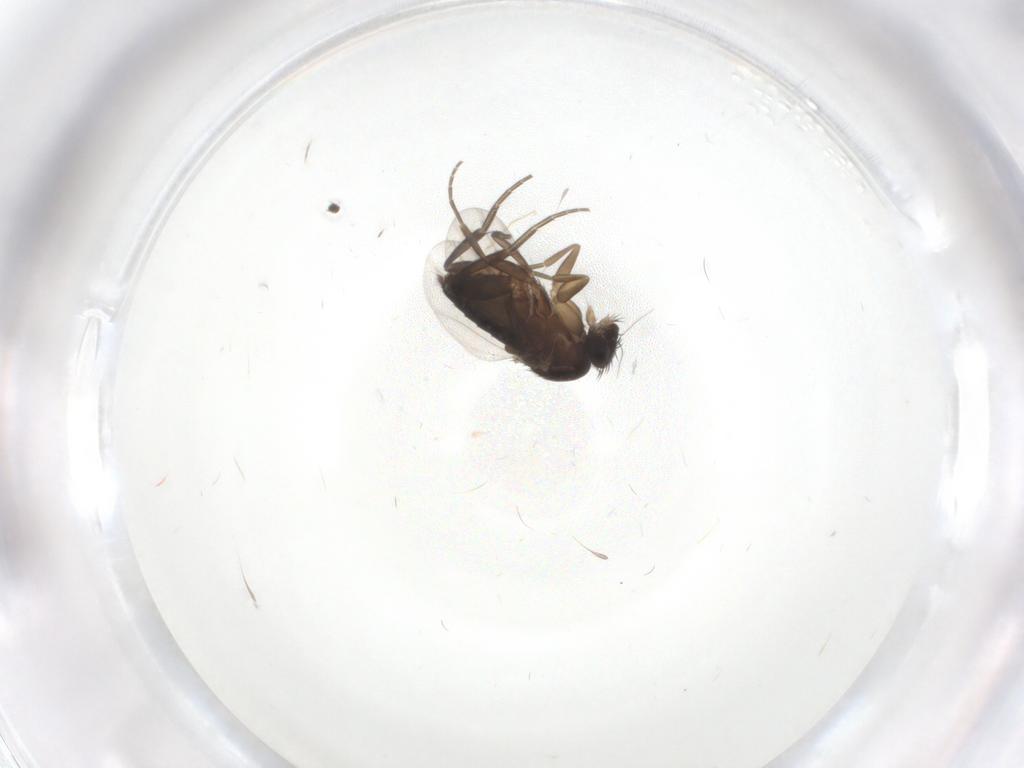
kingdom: Animalia
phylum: Arthropoda
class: Insecta
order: Diptera
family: Phoridae
